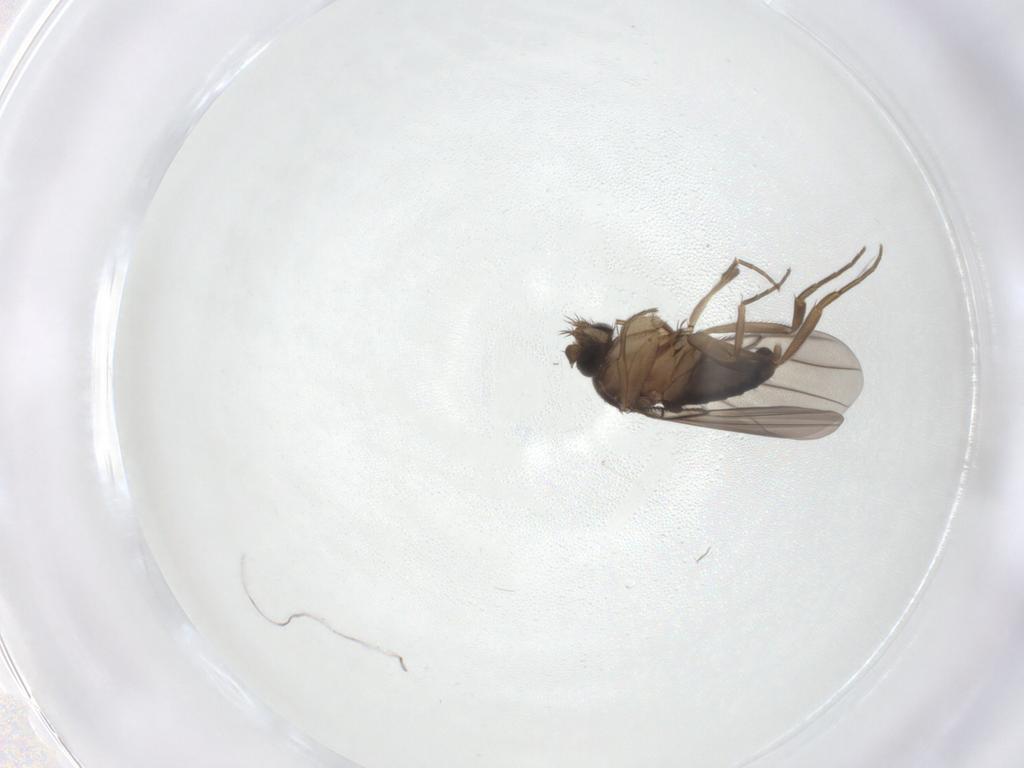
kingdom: Animalia
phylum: Arthropoda
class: Insecta
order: Diptera
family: Phoridae
